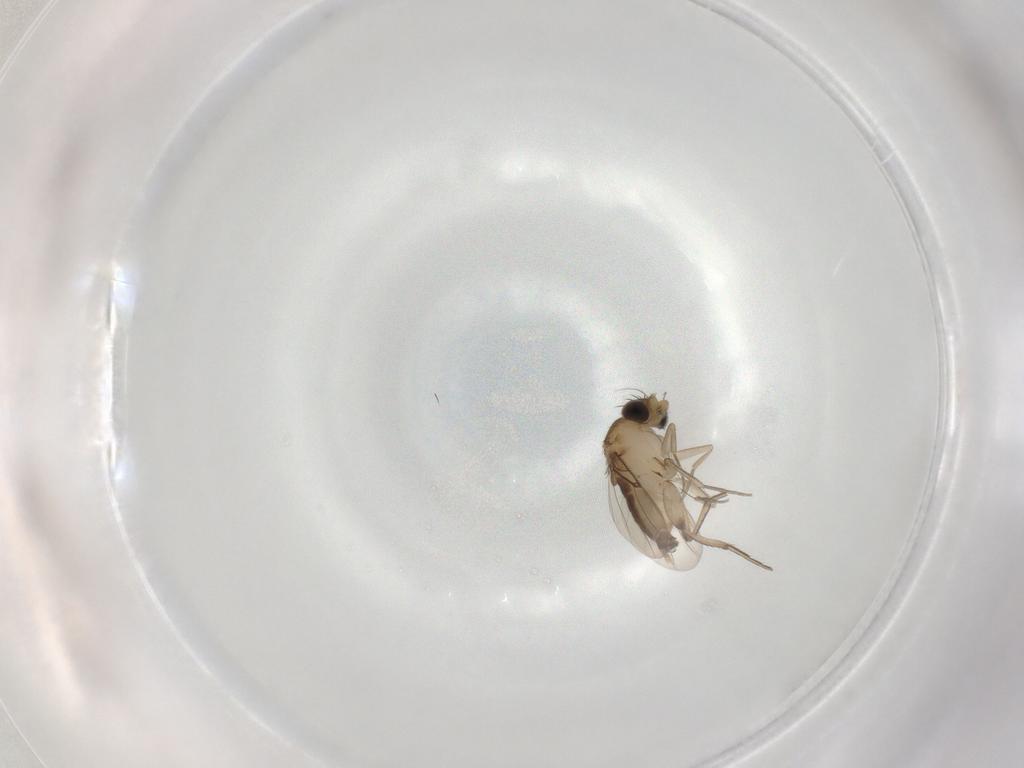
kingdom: Animalia
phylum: Arthropoda
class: Insecta
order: Diptera
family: Phoridae
